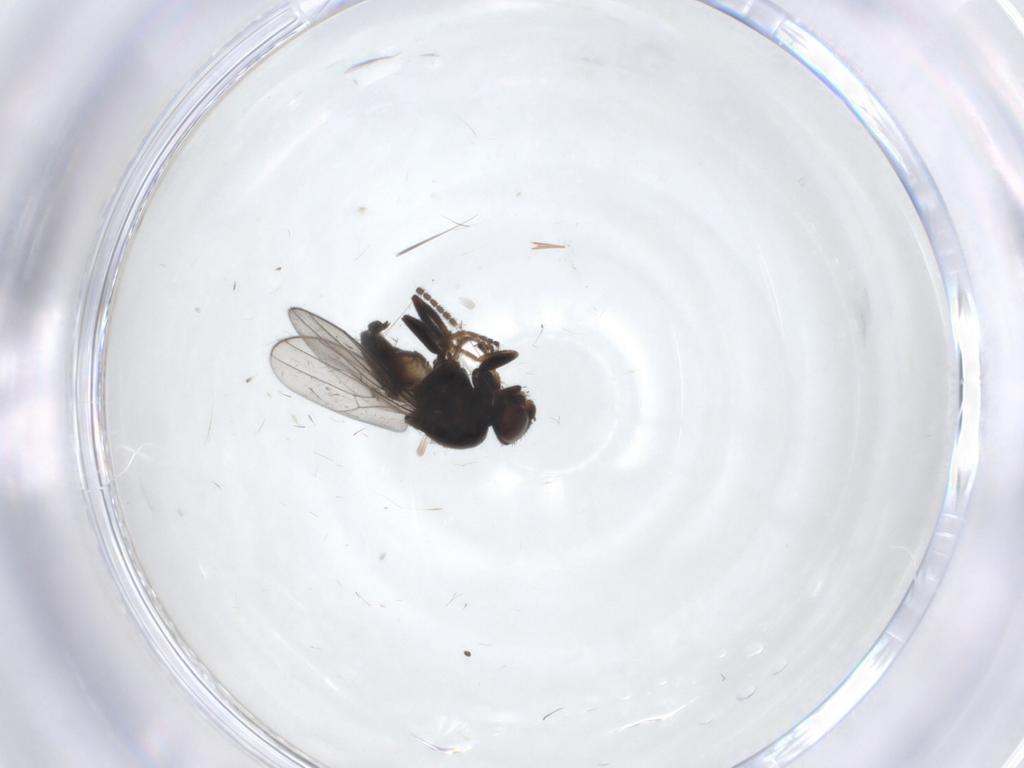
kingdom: Animalia
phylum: Arthropoda
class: Insecta
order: Diptera
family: Chloropidae
